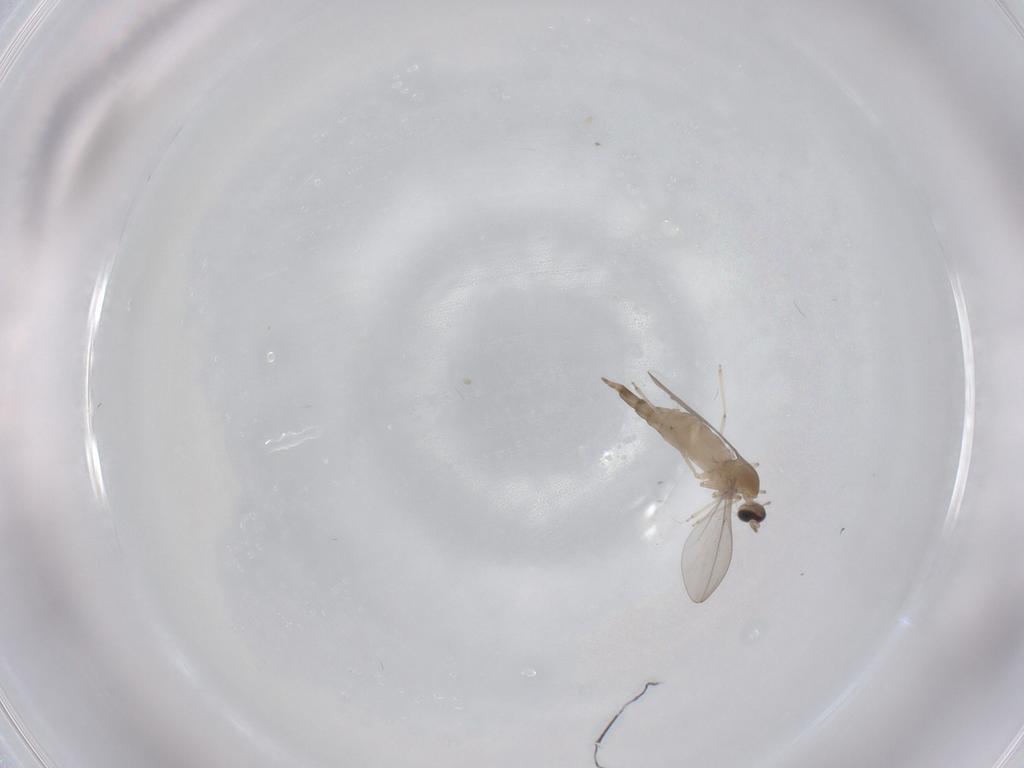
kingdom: Animalia
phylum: Arthropoda
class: Insecta
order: Diptera
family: Cecidomyiidae
